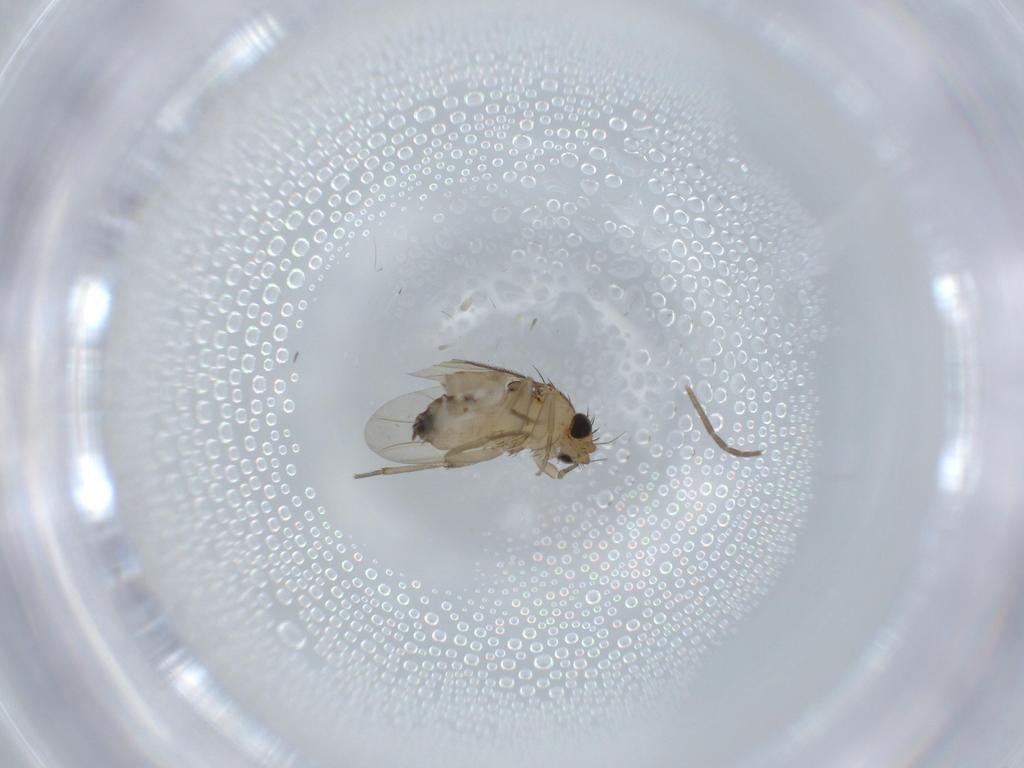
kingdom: Animalia
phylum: Arthropoda
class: Insecta
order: Diptera
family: Phoridae
